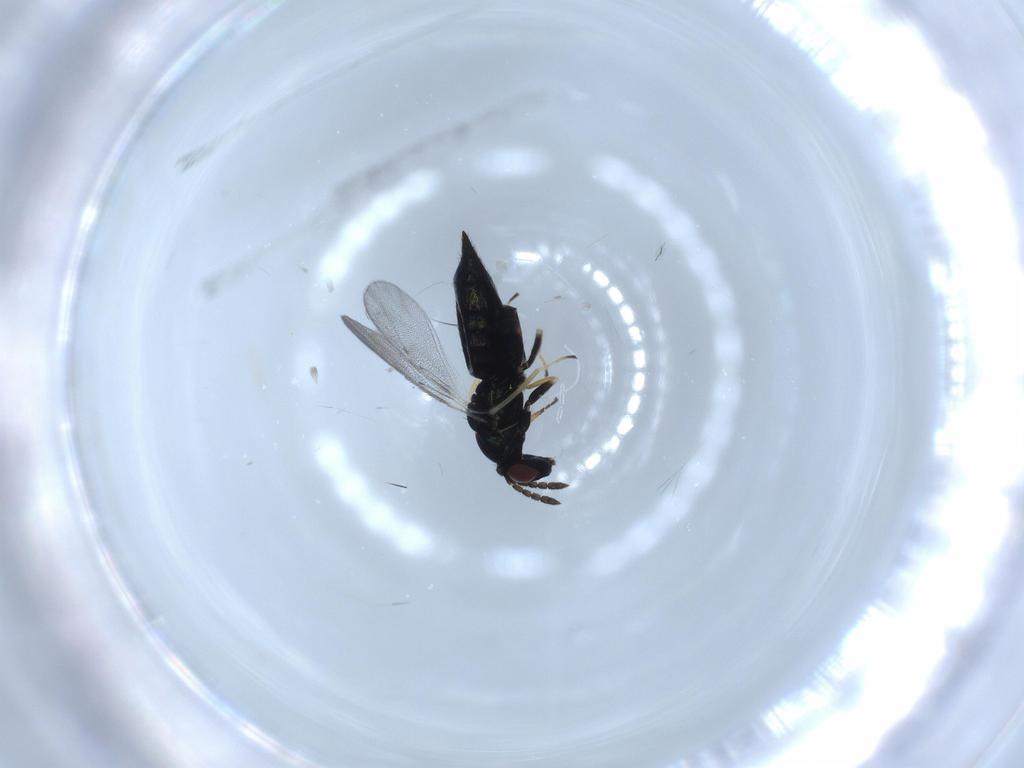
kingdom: Animalia
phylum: Arthropoda
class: Insecta
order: Hymenoptera
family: Eulophidae
